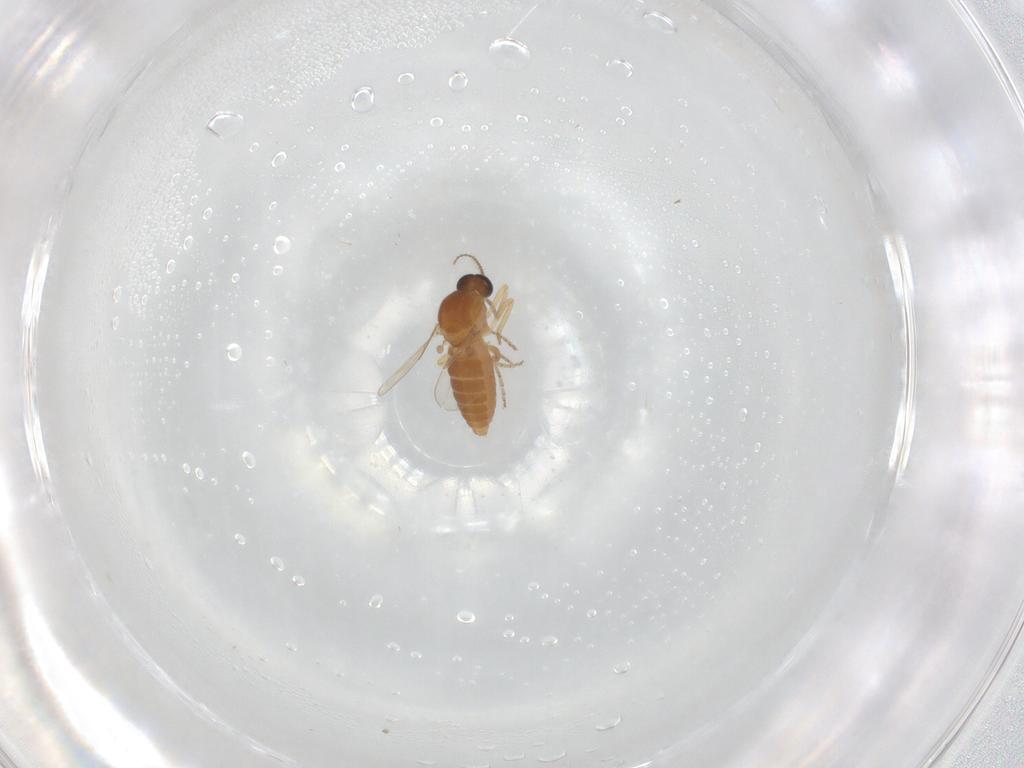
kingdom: Animalia
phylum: Arthropoda
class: Insecta
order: Diptera
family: Ceratopogonidae
